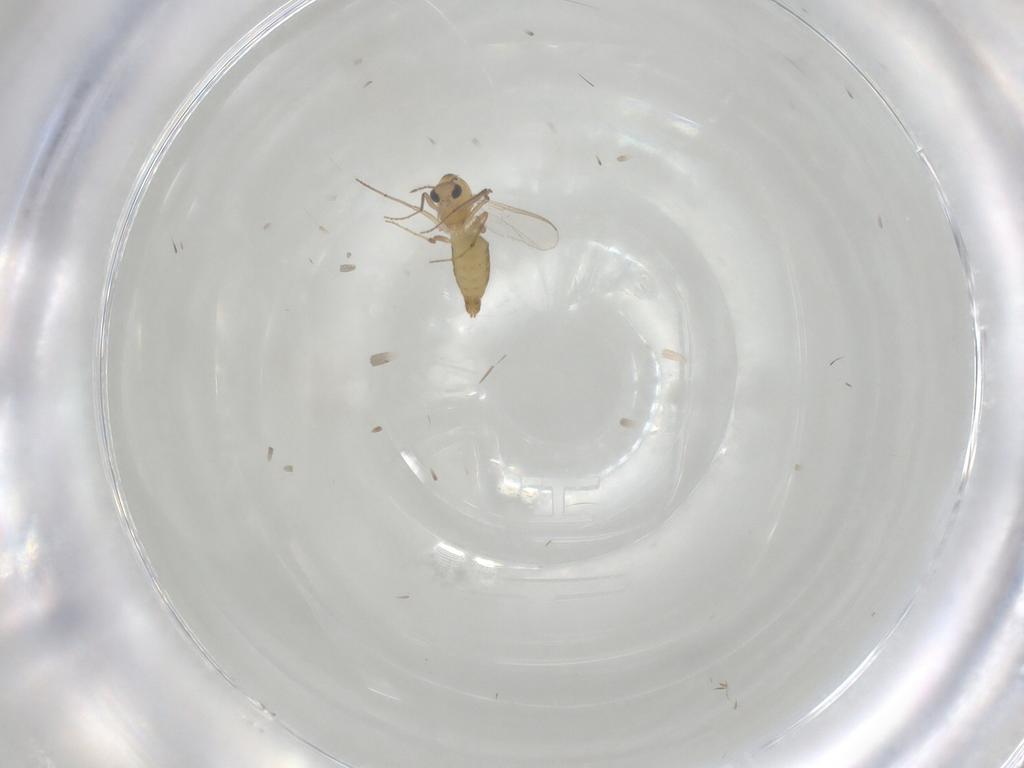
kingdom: Animalia
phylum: Arthropoda
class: Insecta
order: Diptera
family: Chironomidae
